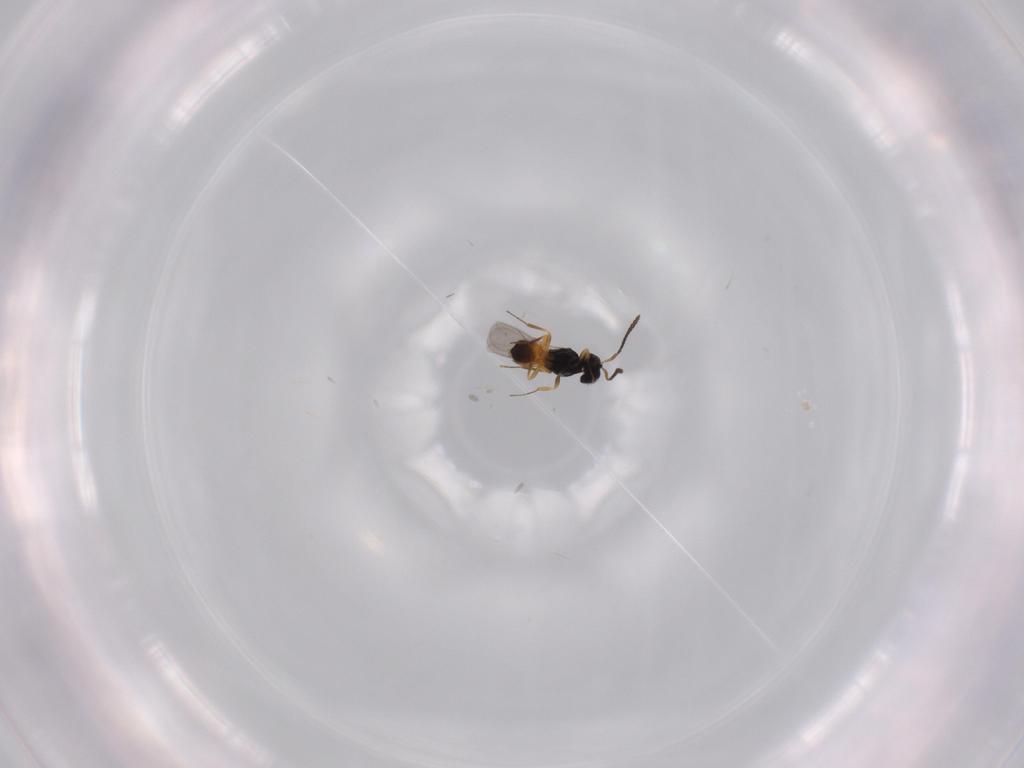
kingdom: Animalia
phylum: Arthropoda
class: Insecta
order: Hymenoptera
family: Scelionidae
